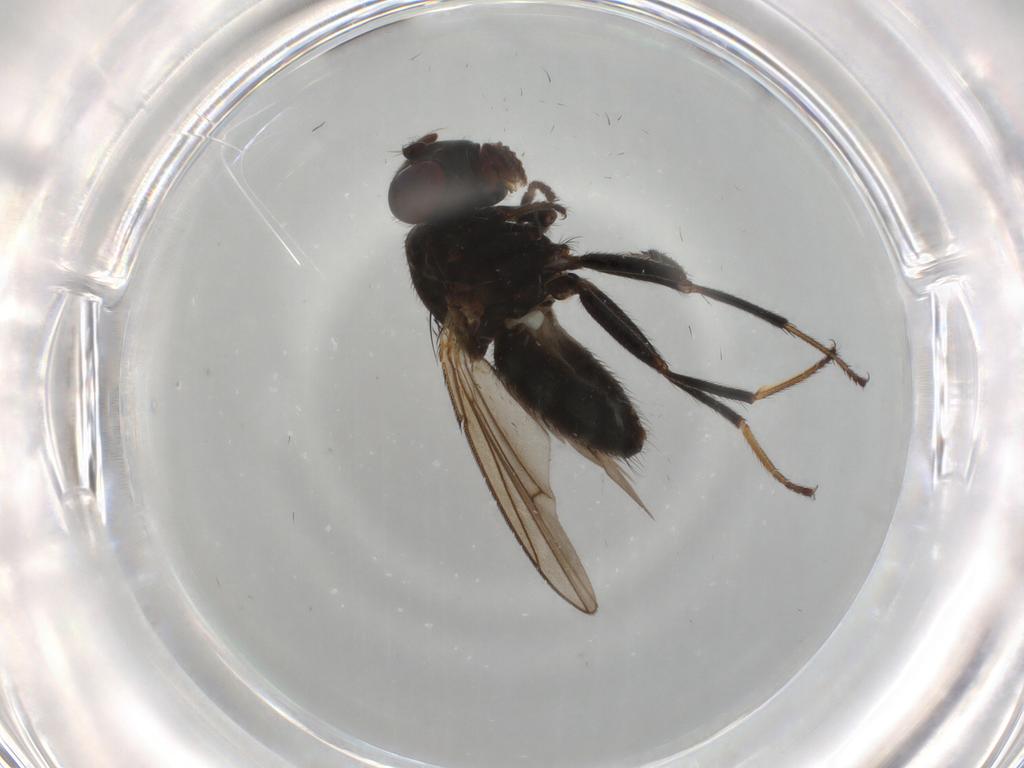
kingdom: Animalia
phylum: Arthropoda
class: Insecta
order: Diptera
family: Ephydridae
